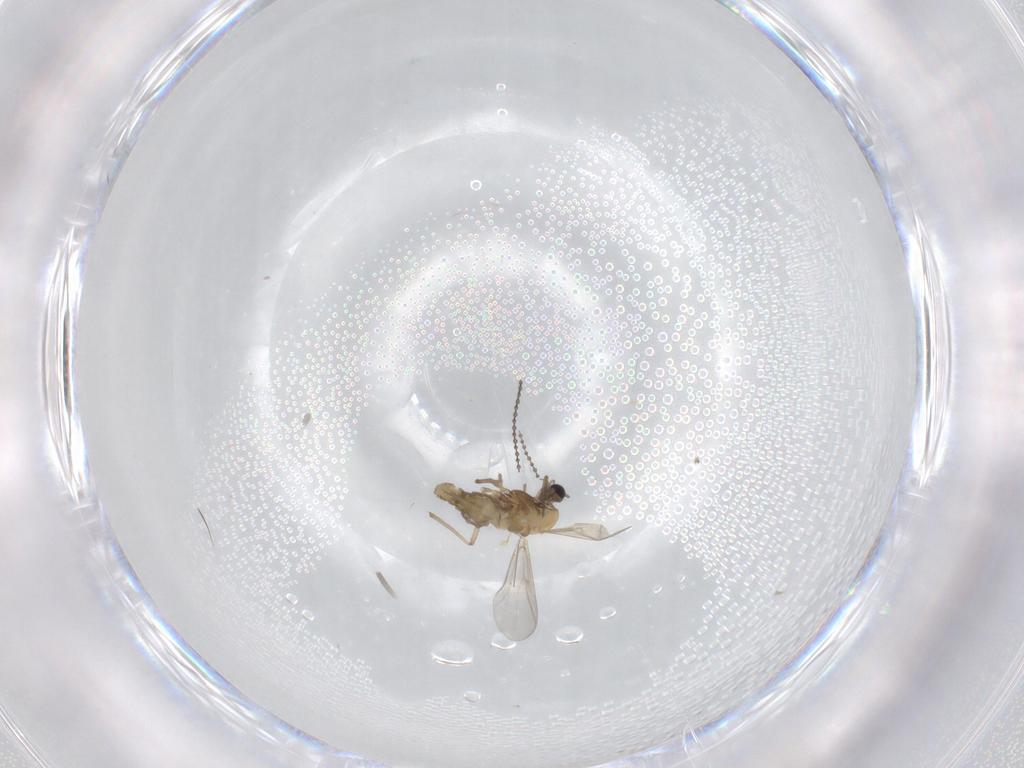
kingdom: Animalia
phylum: Arthropoda
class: Insecta
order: Diptera
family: Chironomidae
